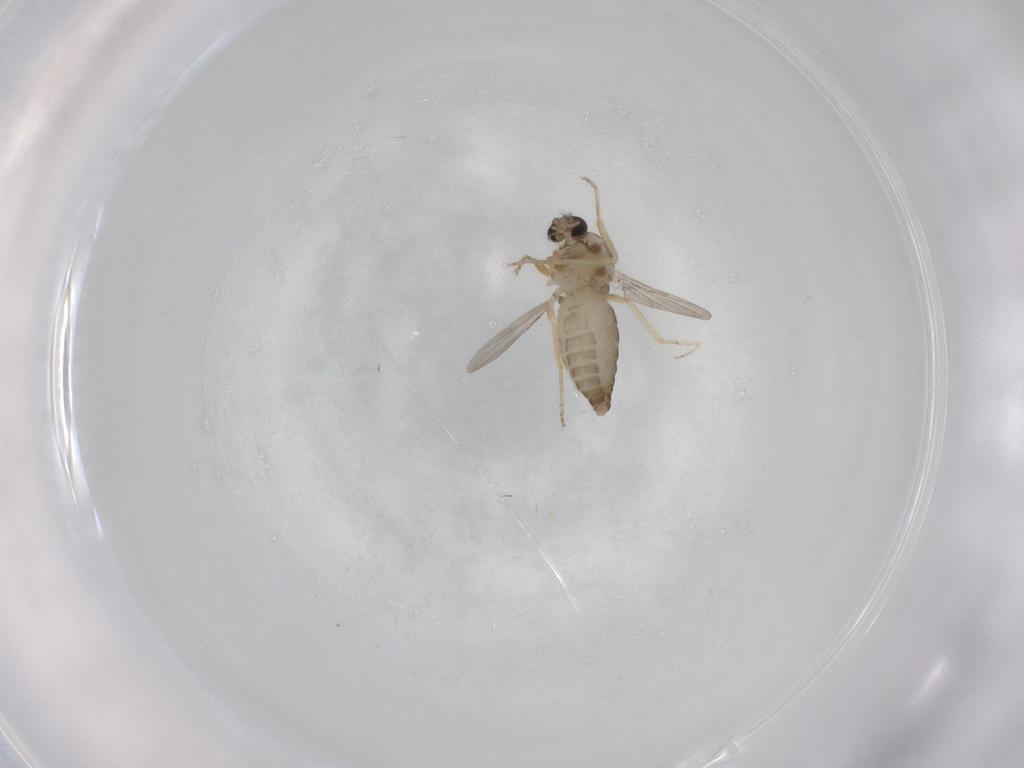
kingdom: Animalia
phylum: Arthropoda
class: Insecta
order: Diptera
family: Ceratopogonidae
